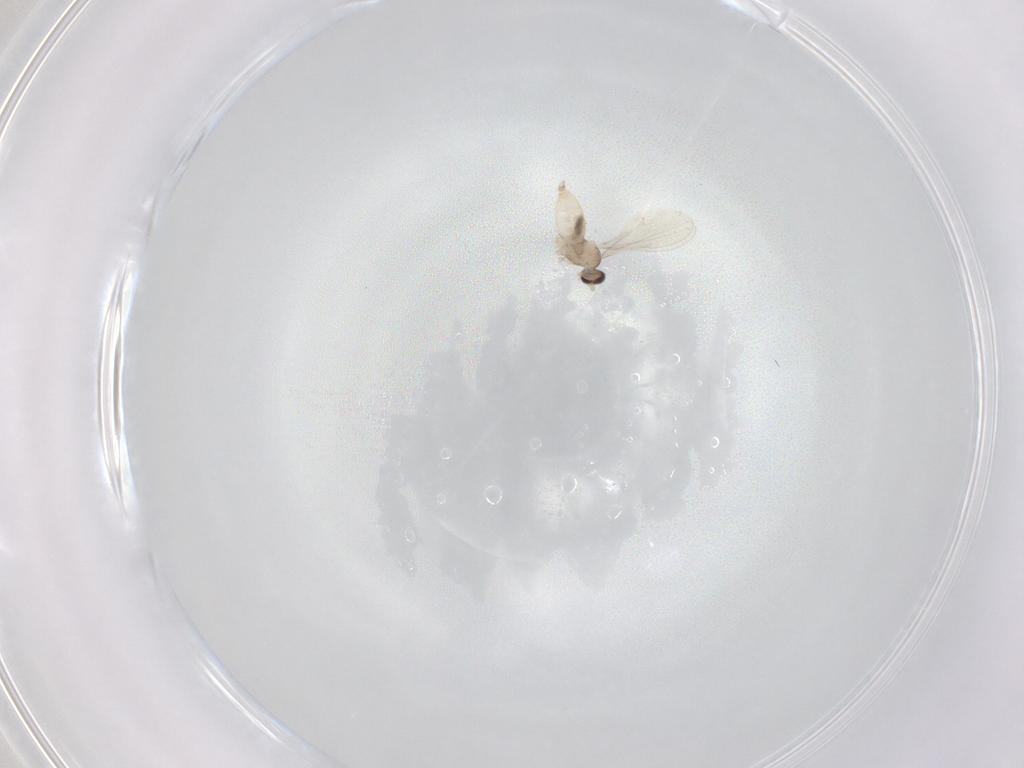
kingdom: Animalia
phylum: Arthropoda
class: Insecta
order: Diptera
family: Cecidomyiidae
